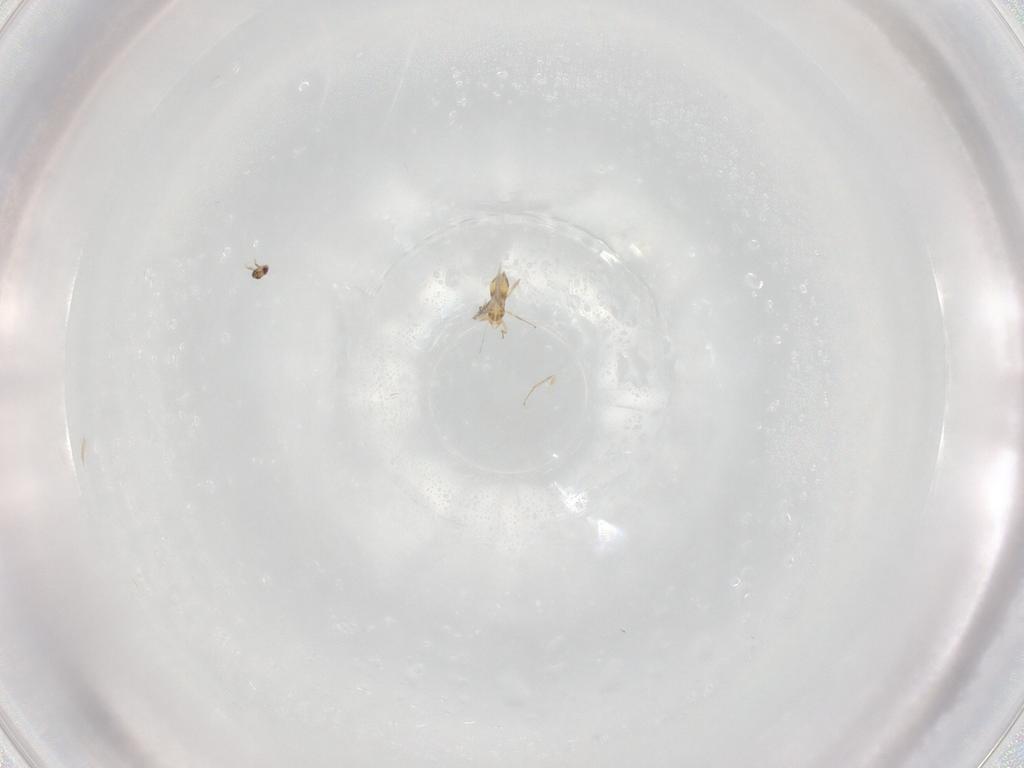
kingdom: Animalia
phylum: Arthropoda
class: Insecta
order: Hymenoptera
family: Mymaridae
